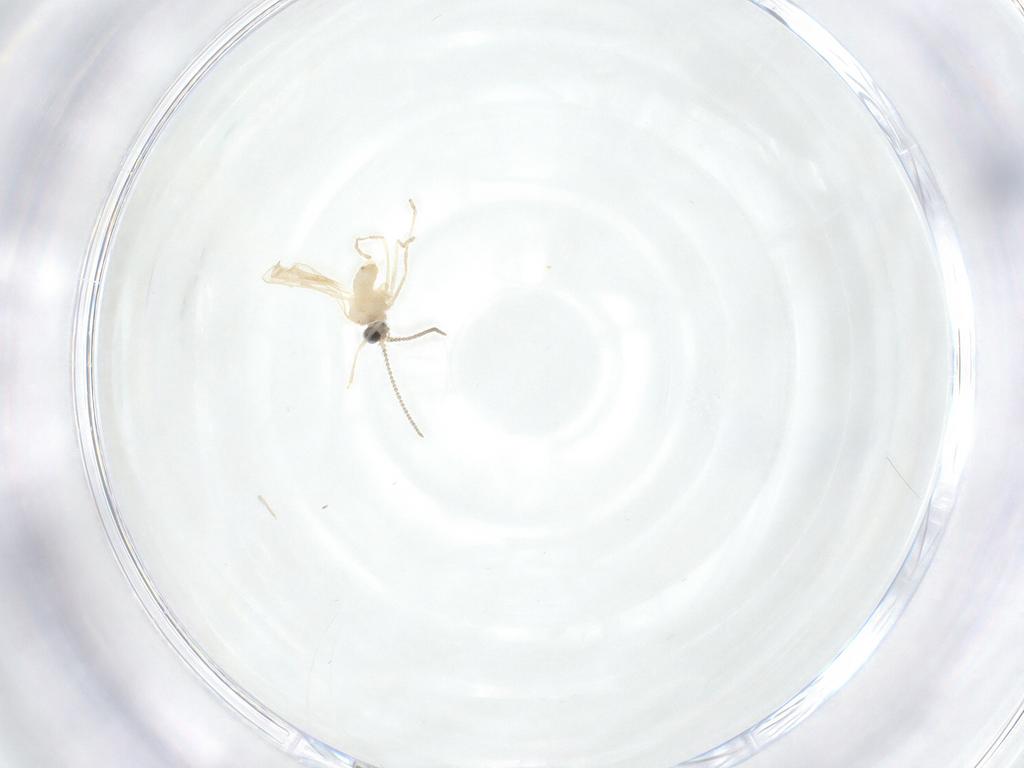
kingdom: Animalia
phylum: Arthropoda
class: Insecta
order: Diptera
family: Cecidomyiidae
